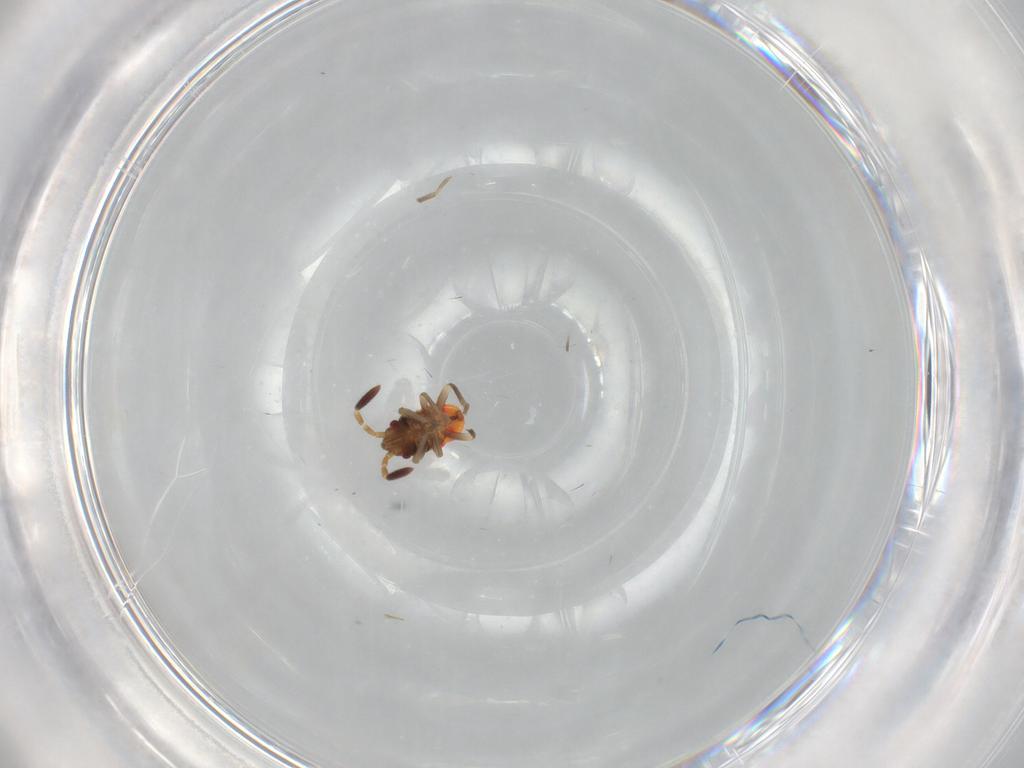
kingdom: Animalia
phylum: Arthropoda
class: Insecta
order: Hemiptera
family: Rhyparochromidae
